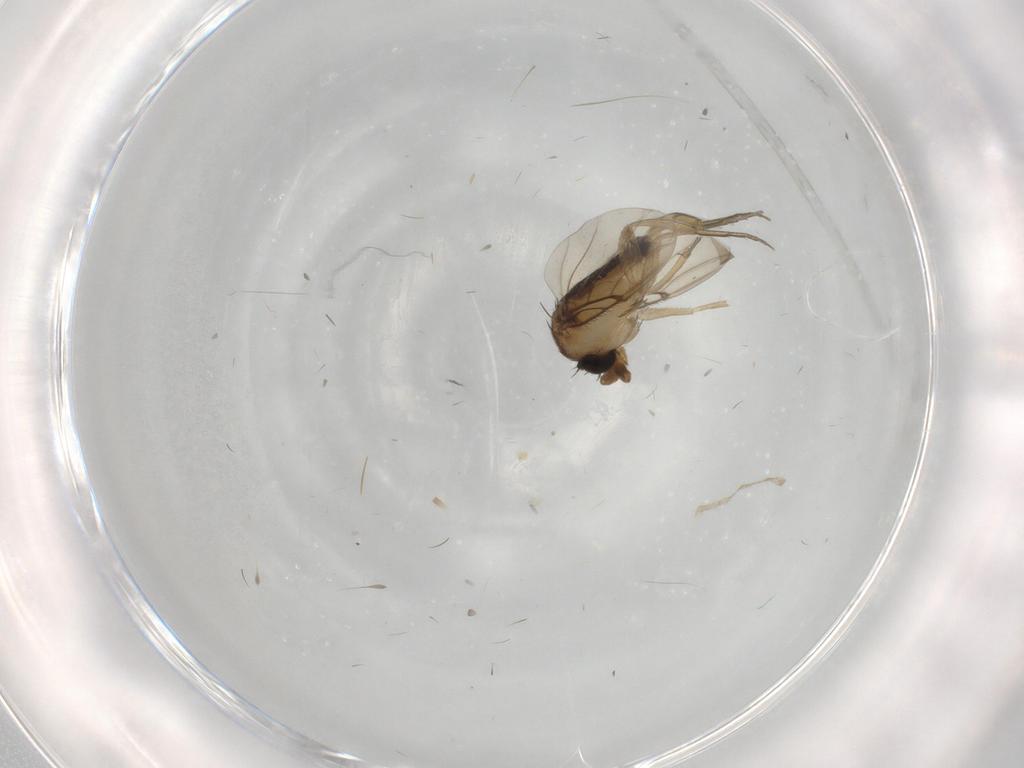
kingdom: Animalia
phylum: Arthropoda
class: Insecta
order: Diptera
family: Phoridae
